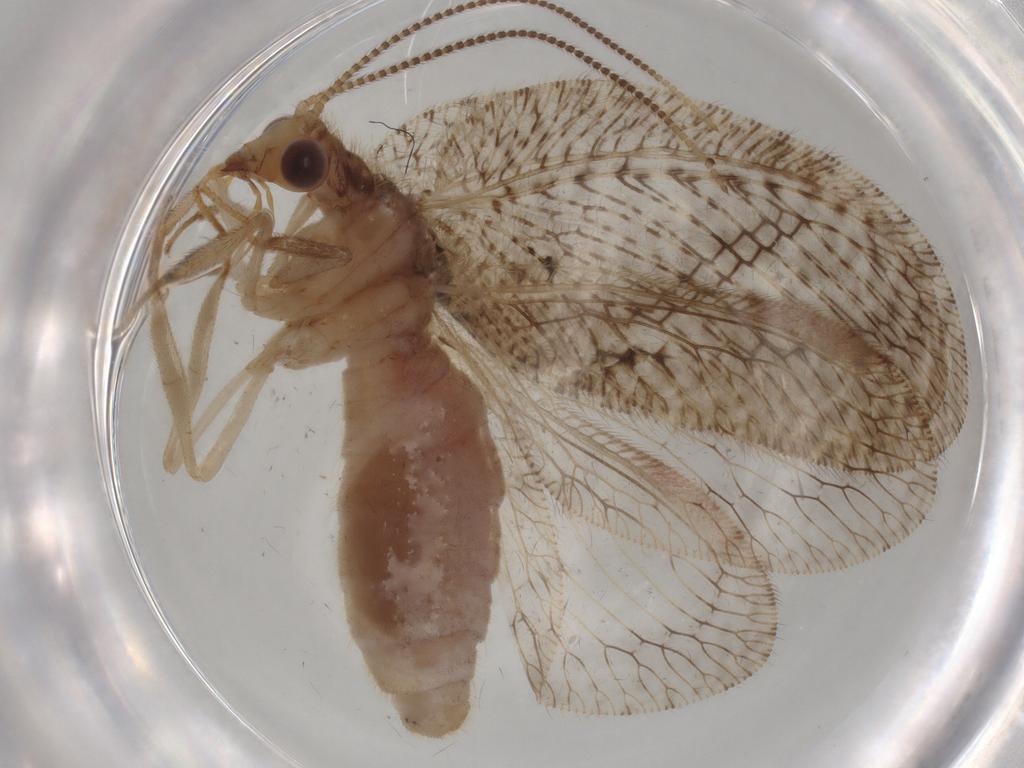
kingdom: Animalia
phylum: Arthropoda
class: Insecta
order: Neuroptera
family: Hemerobiidae
